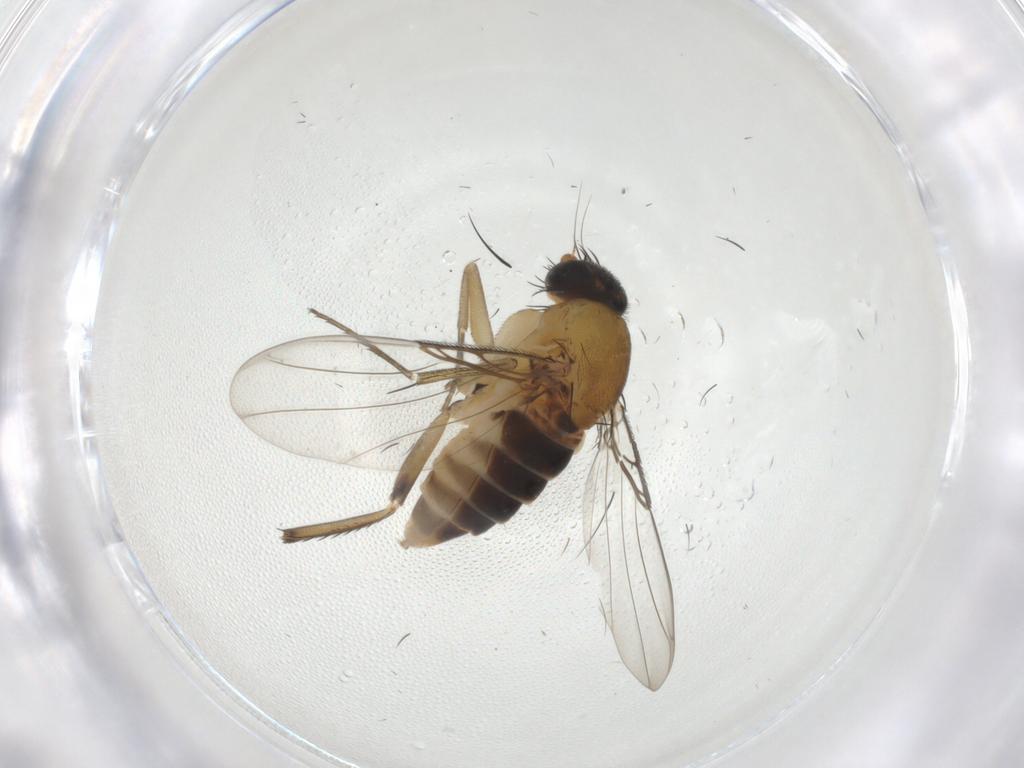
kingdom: Animalia
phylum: Arthropoda
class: Insecta
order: Diptera
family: Phoridae
